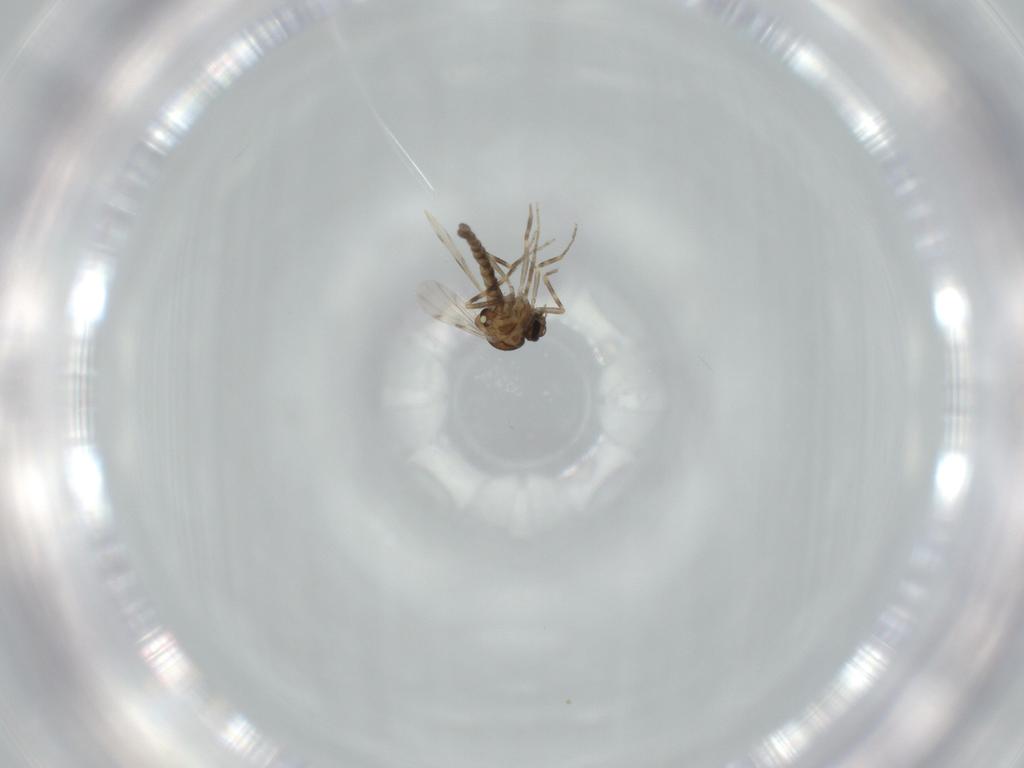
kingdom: Animalia
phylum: Arthropoda
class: Insecta
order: Diptera
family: Ceratopogonidae
